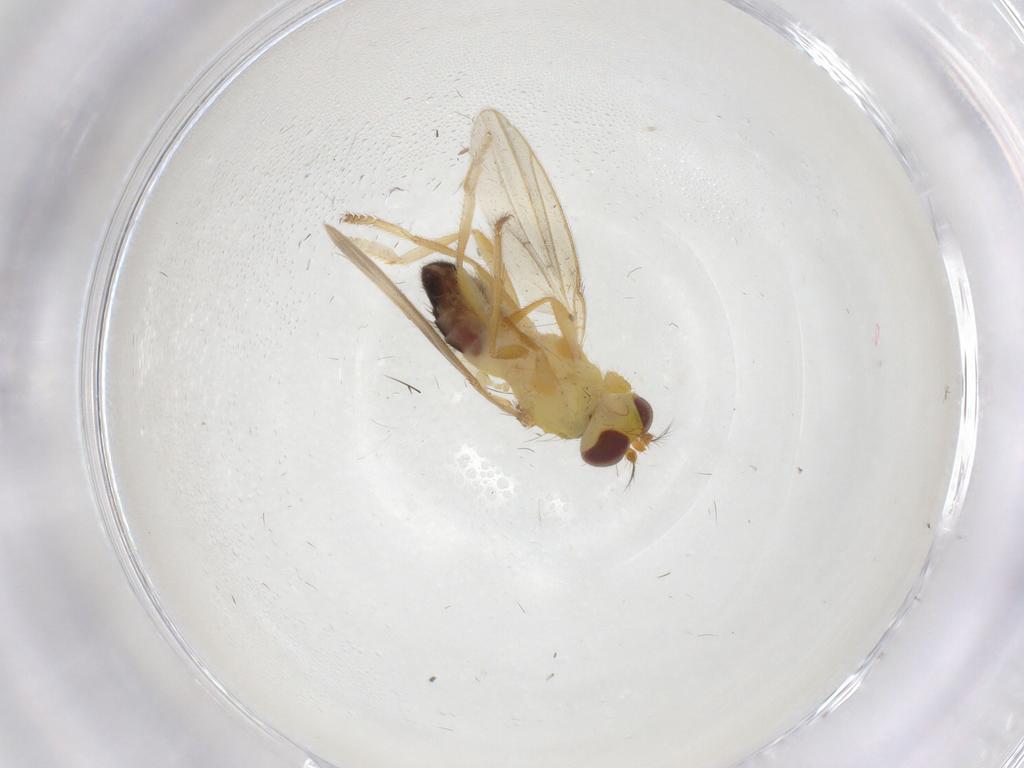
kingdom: Animalia
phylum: Arthropoda
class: Insecta
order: Diptera
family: Periscelididae
